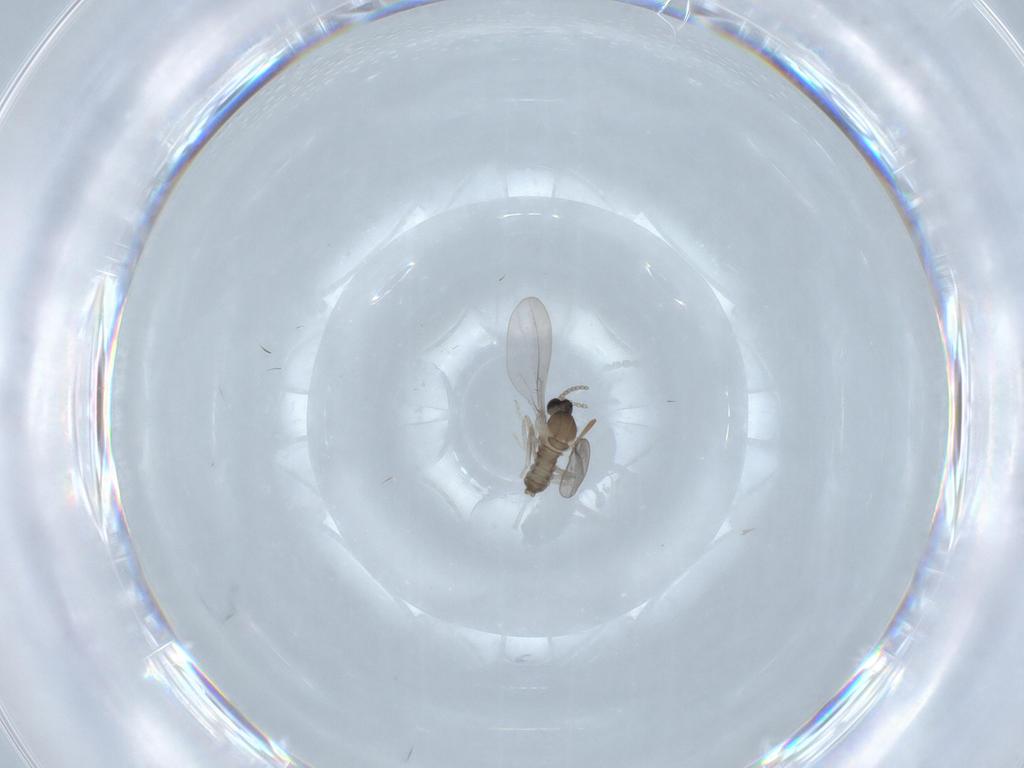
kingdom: Animalia
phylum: Arthropoda
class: Insecta
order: Diptera
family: Cecidomyiidae
